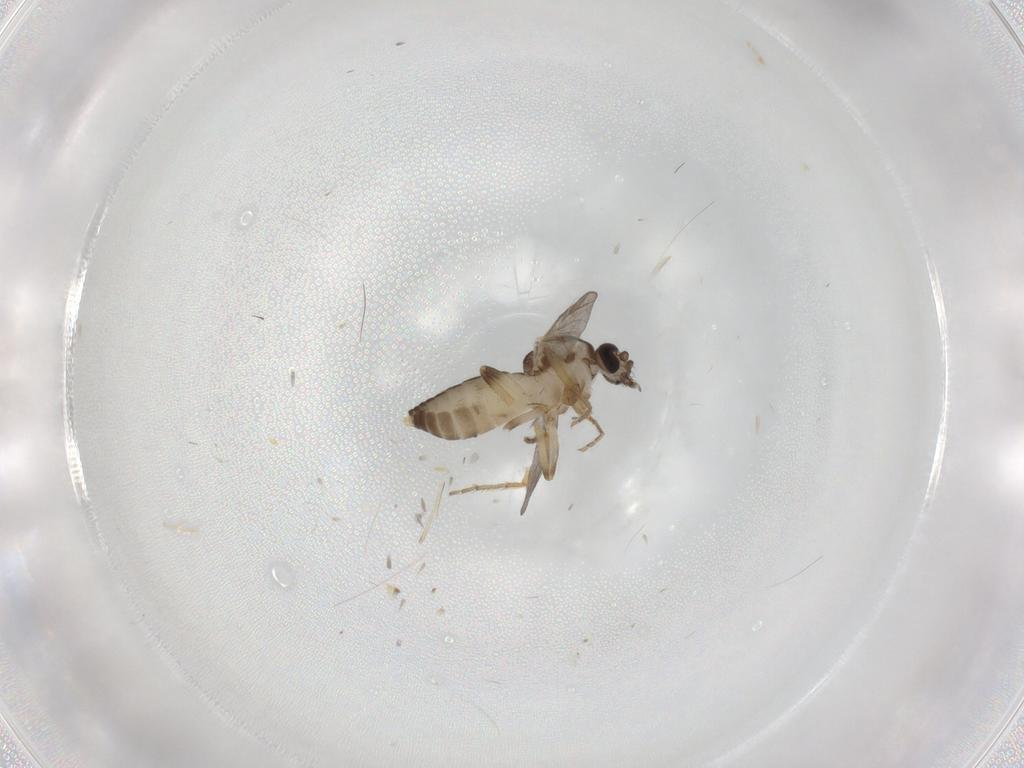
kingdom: Animalia
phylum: Arthropoda
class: Insecta
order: Diptera
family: Ceratopogonidae
